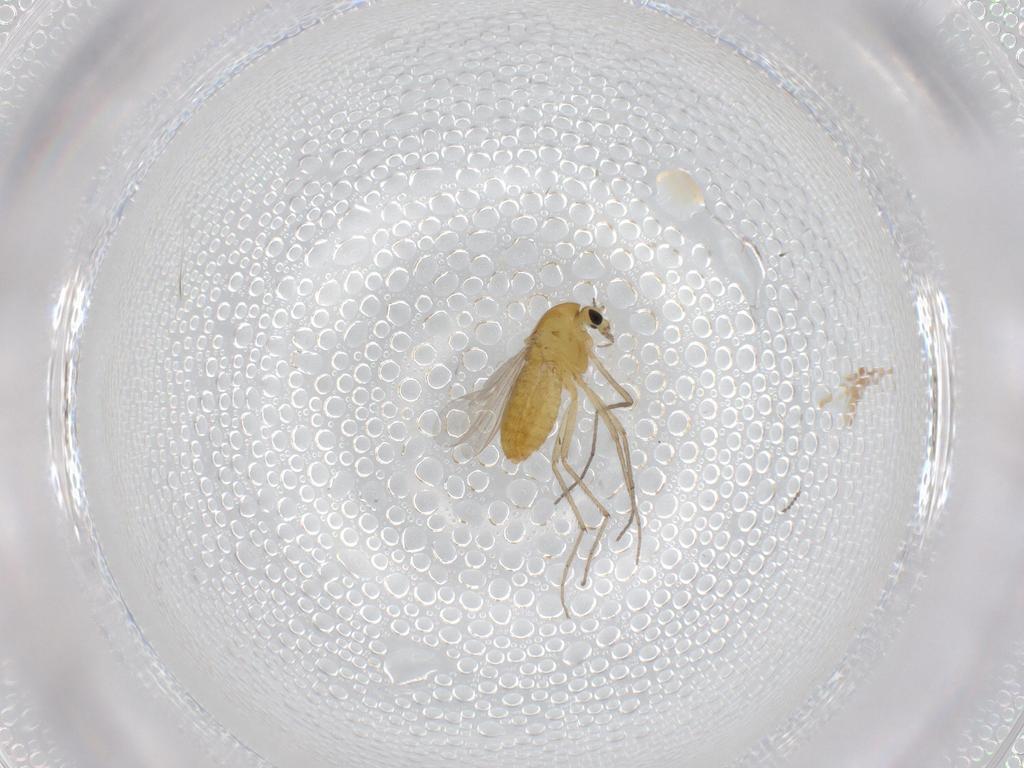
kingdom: Animalia
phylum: Arthropoda
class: Insecta
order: Diptera
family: Chironomidae
